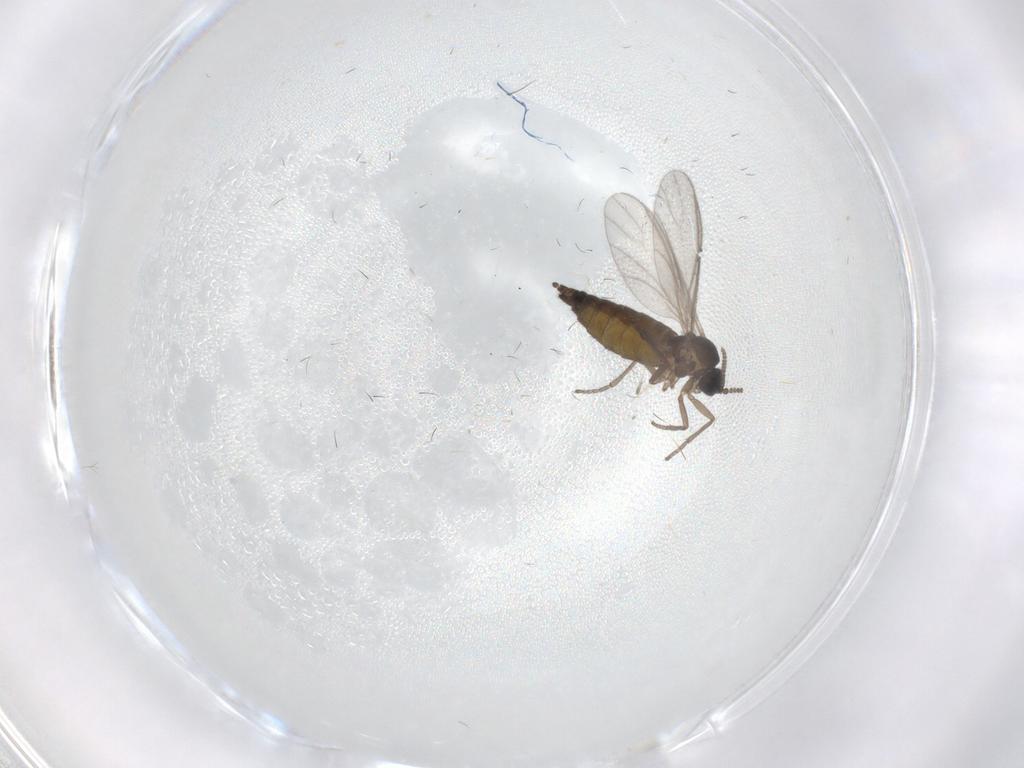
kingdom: Animalia
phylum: Arthropoda
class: Insecta
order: Diptera
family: Sciaridae
